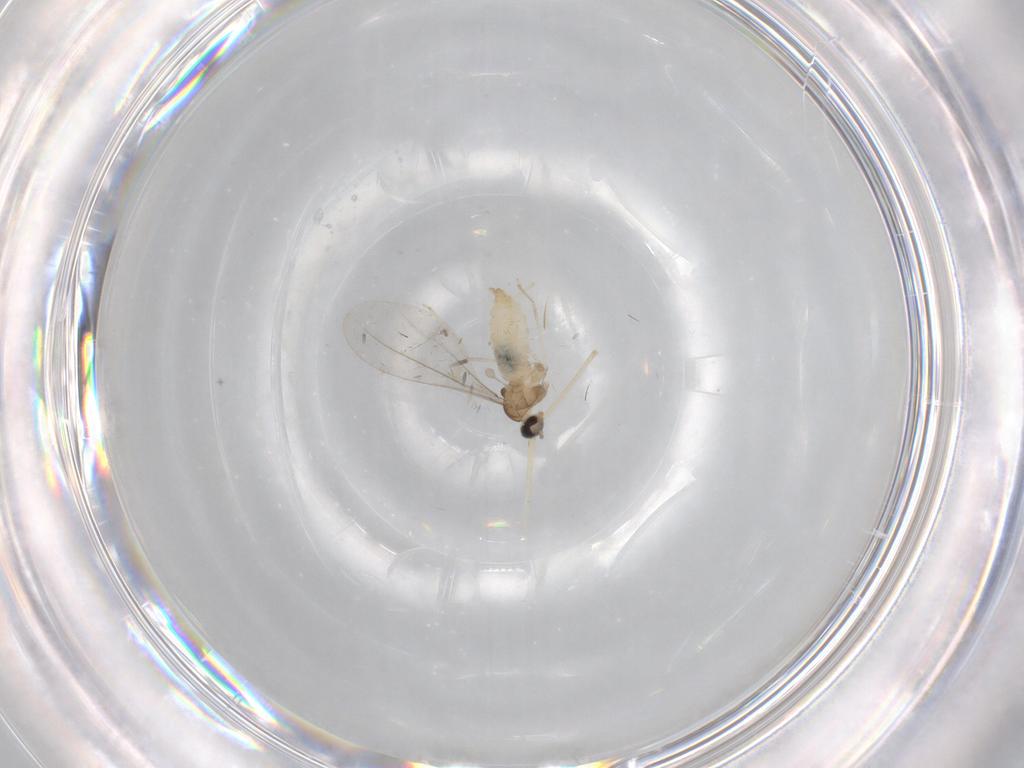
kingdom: Animalia
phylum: Arthropoda
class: Insecta
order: Diptera
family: Cecidomyiidae
